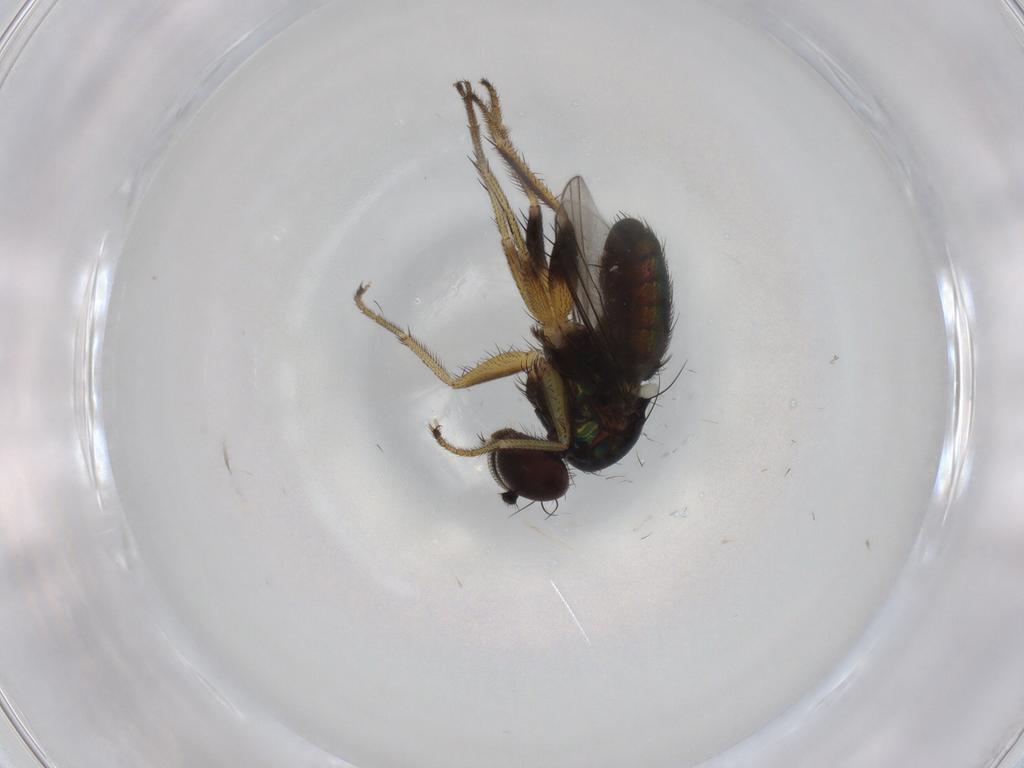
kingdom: Animalia
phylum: Arthropoda
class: Insecta
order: Diptera
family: Dolichopodidae
